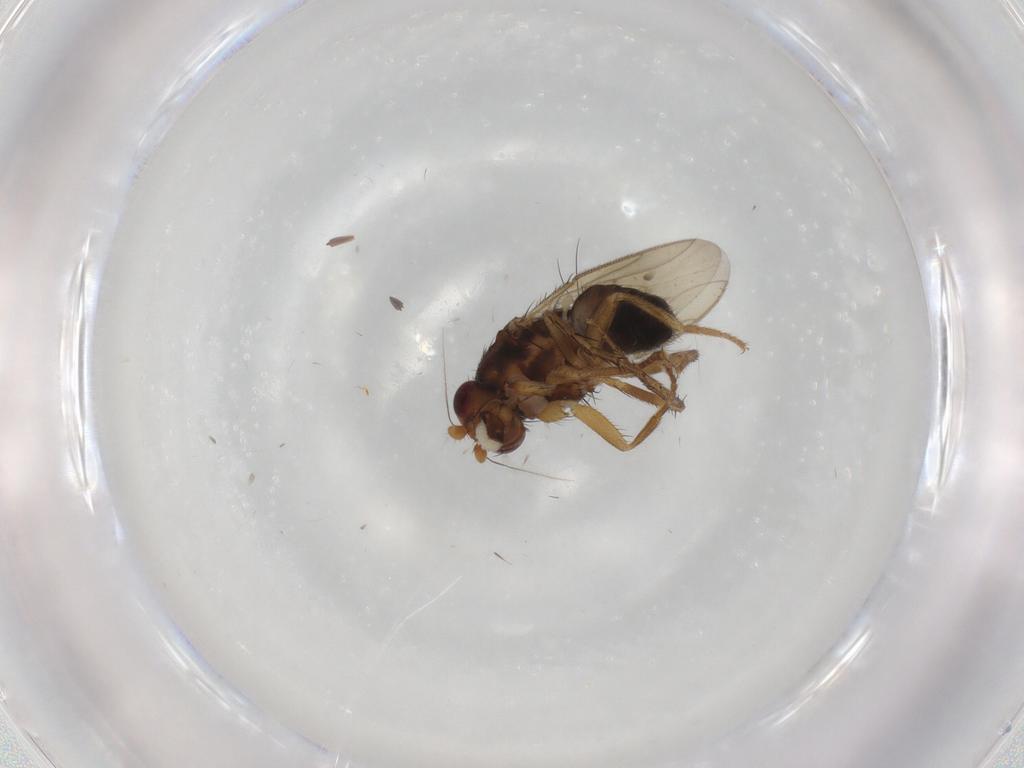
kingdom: Animalia
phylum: Arthropoda
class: Insecta
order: Diptera
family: Sphaeroceridae
